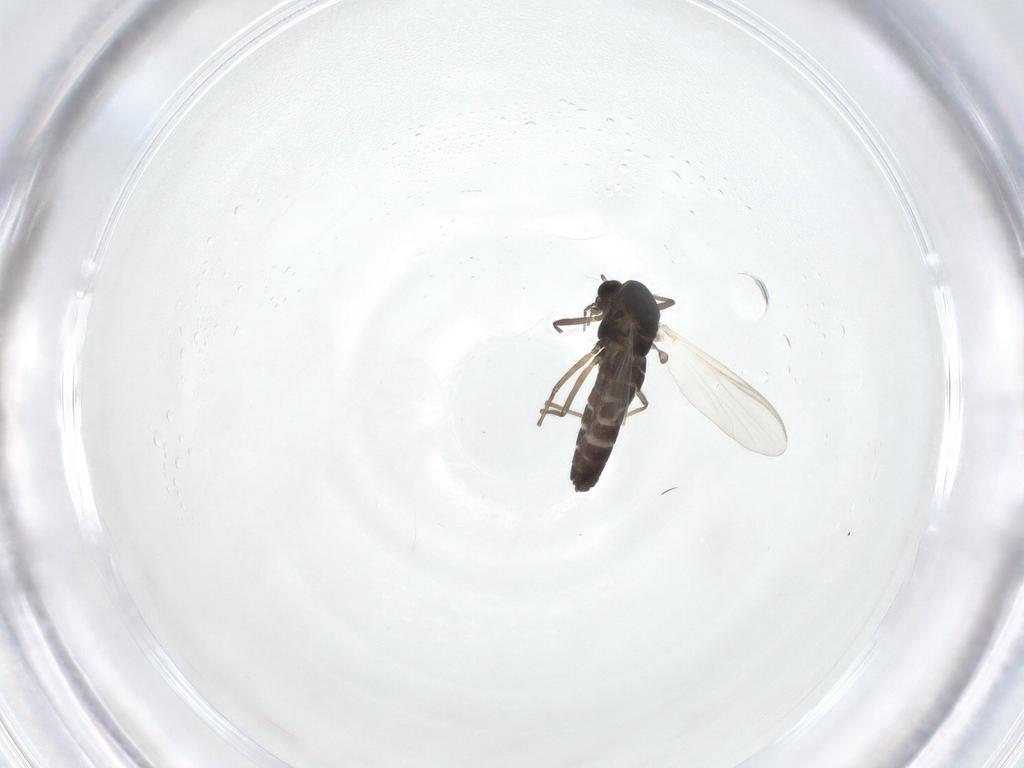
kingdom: Animalia
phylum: Arthropoda
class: Insecta
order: Diptera
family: Chironomidae
